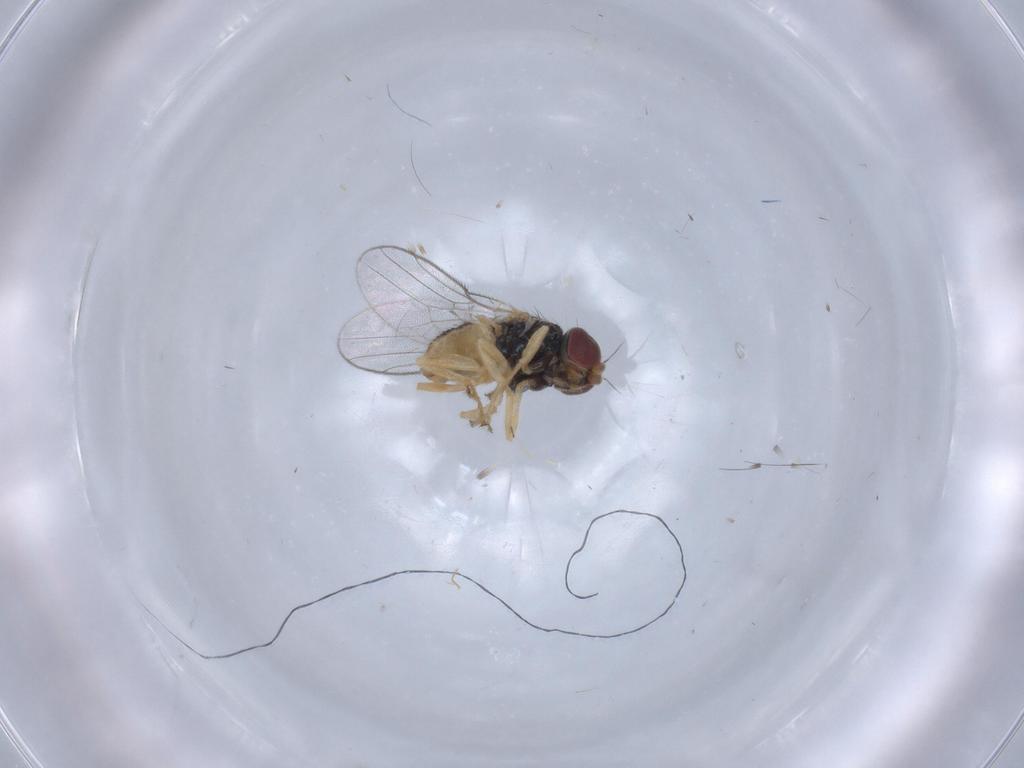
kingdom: Animalia
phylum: Arthropoda
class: Insecta
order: Diptera
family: Chloropidae
